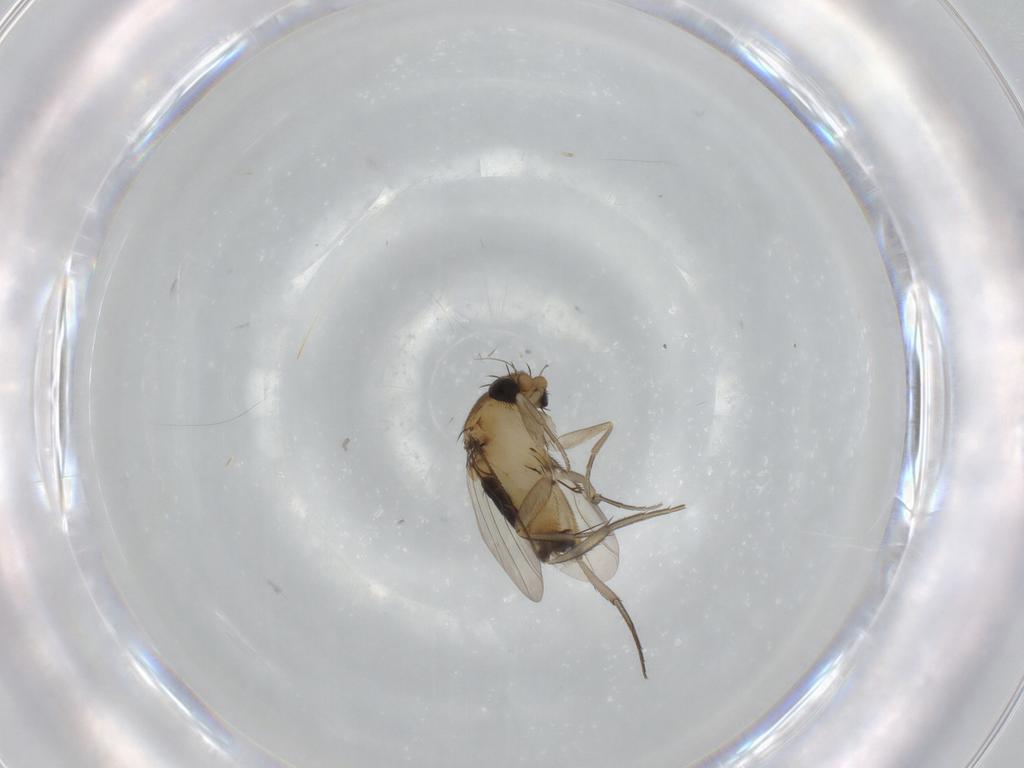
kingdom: Animalia
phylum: Arthropoda
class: Insecta
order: Diptera
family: Phoridae
